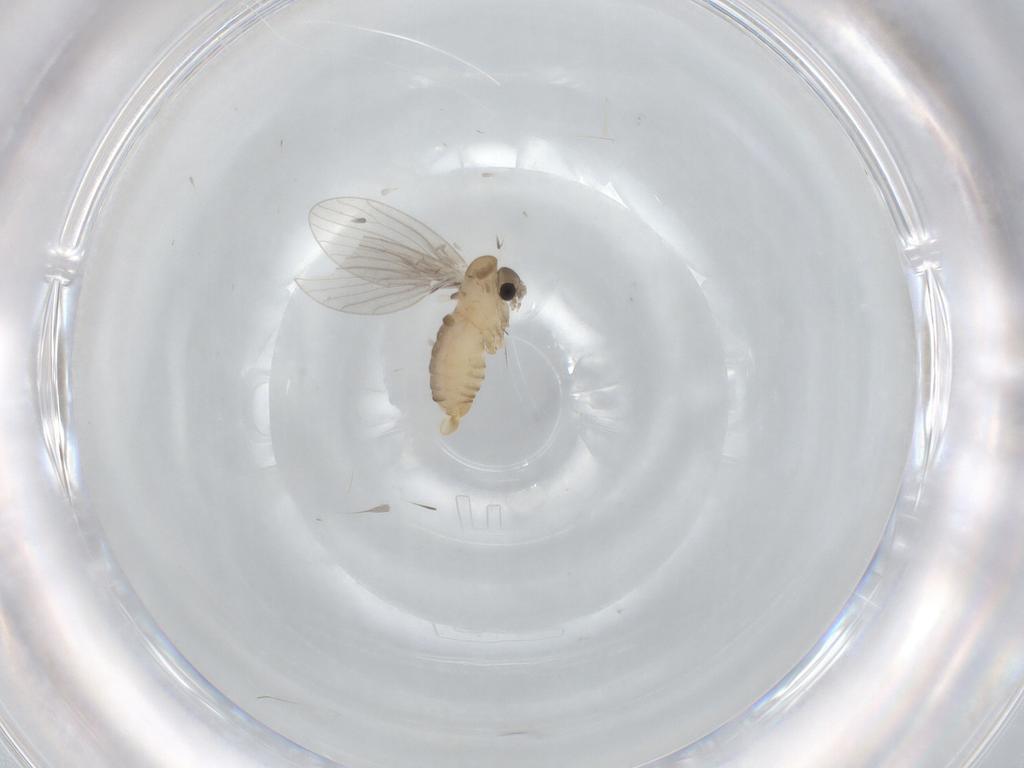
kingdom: Animalia
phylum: Arthropoda
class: Insecta
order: Diptera
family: Psychodidae
